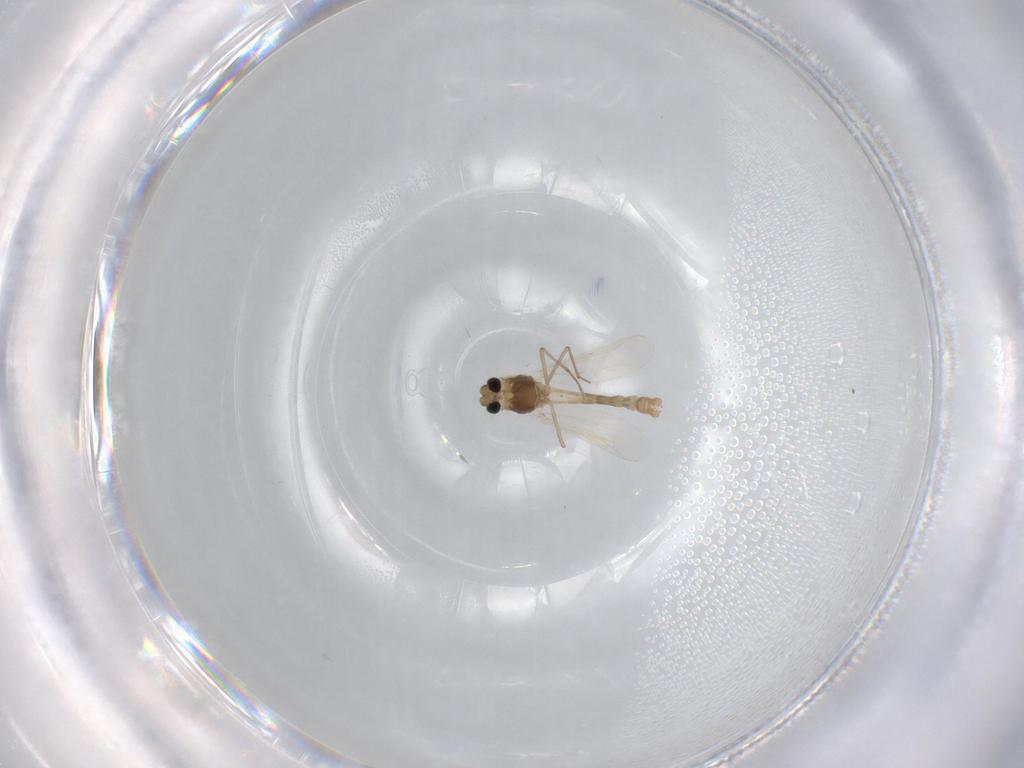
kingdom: Animalia
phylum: Arthropoda
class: Insecta
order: Diptera
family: Chironomidae
